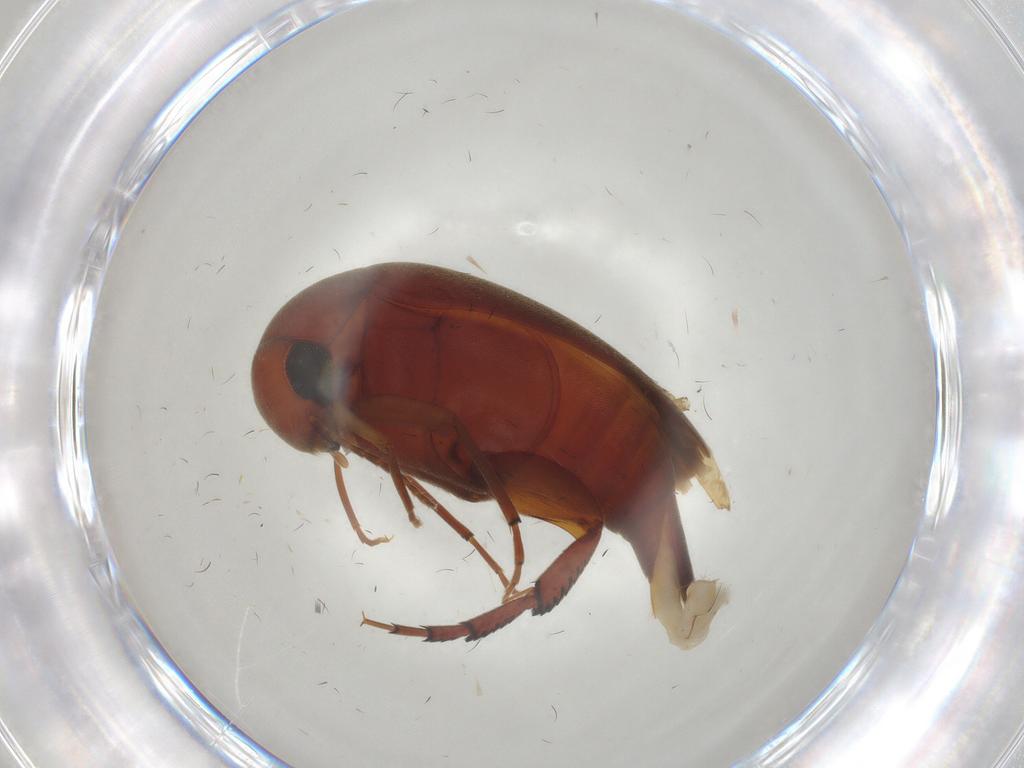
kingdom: Animalia
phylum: Arthropoda
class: Insecta
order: Coleoptera
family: Mordellidae
